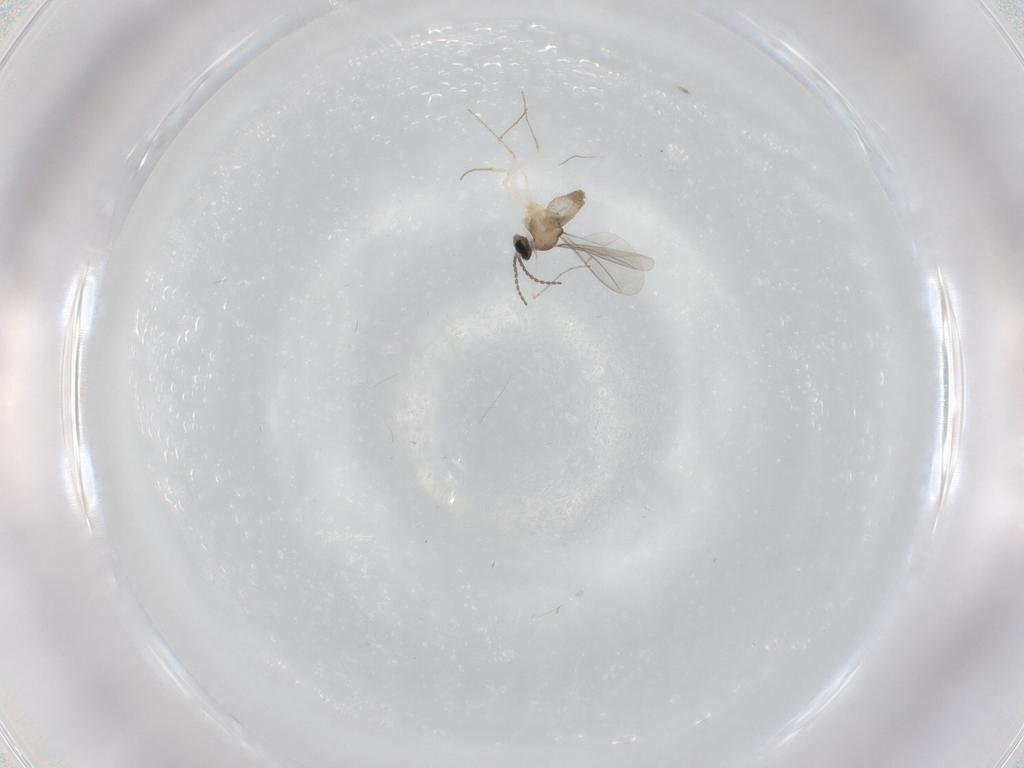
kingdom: Animalia
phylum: Arthropoda
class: Insecta
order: Diptera
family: Cecidomyiidae
